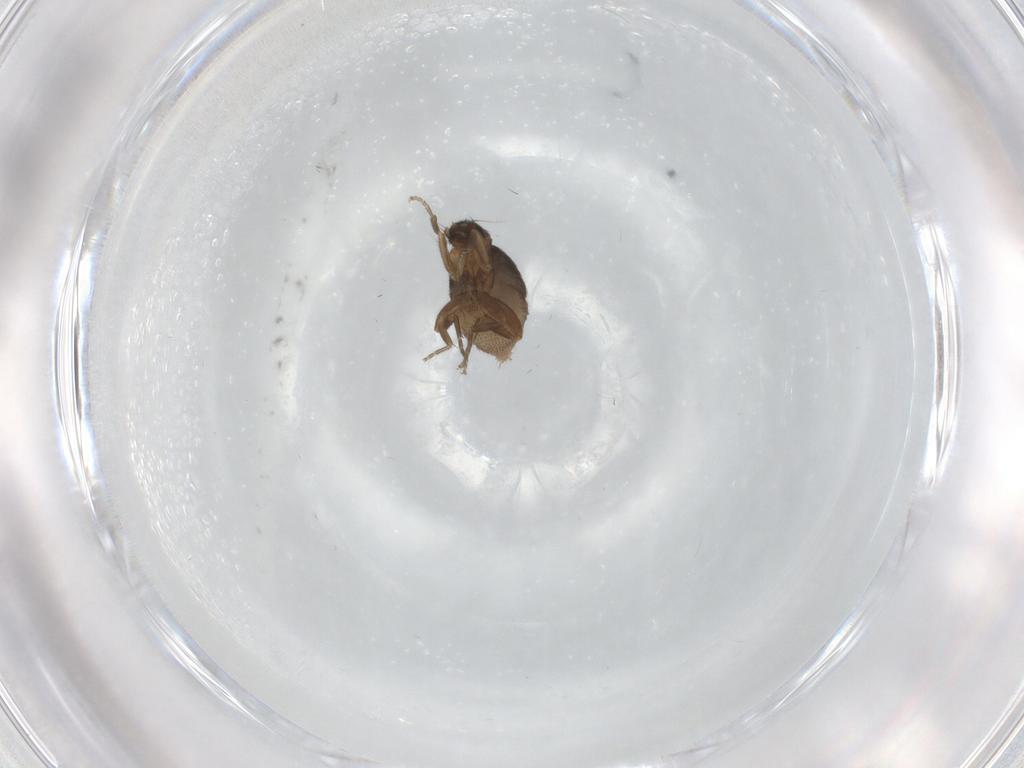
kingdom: Animalia
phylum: Arthropoda
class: Insecta
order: Diptera
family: Phoridae
